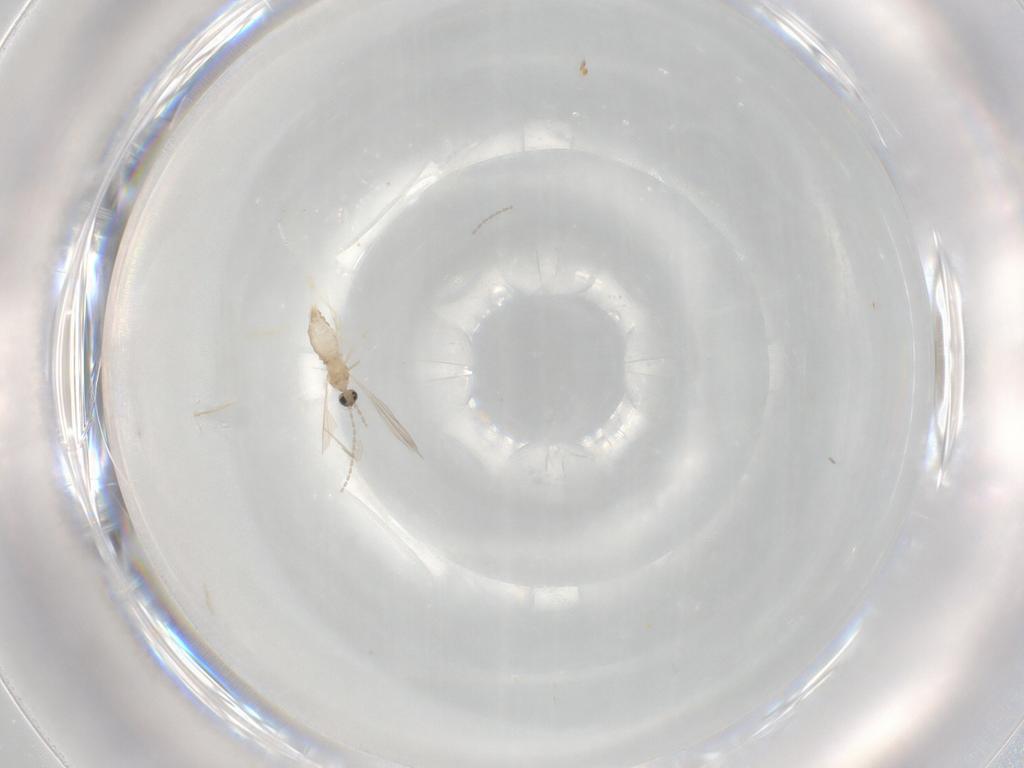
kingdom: Animalia
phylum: Arthropoda
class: Insecta
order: Diptera
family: Cecidomyiidae
